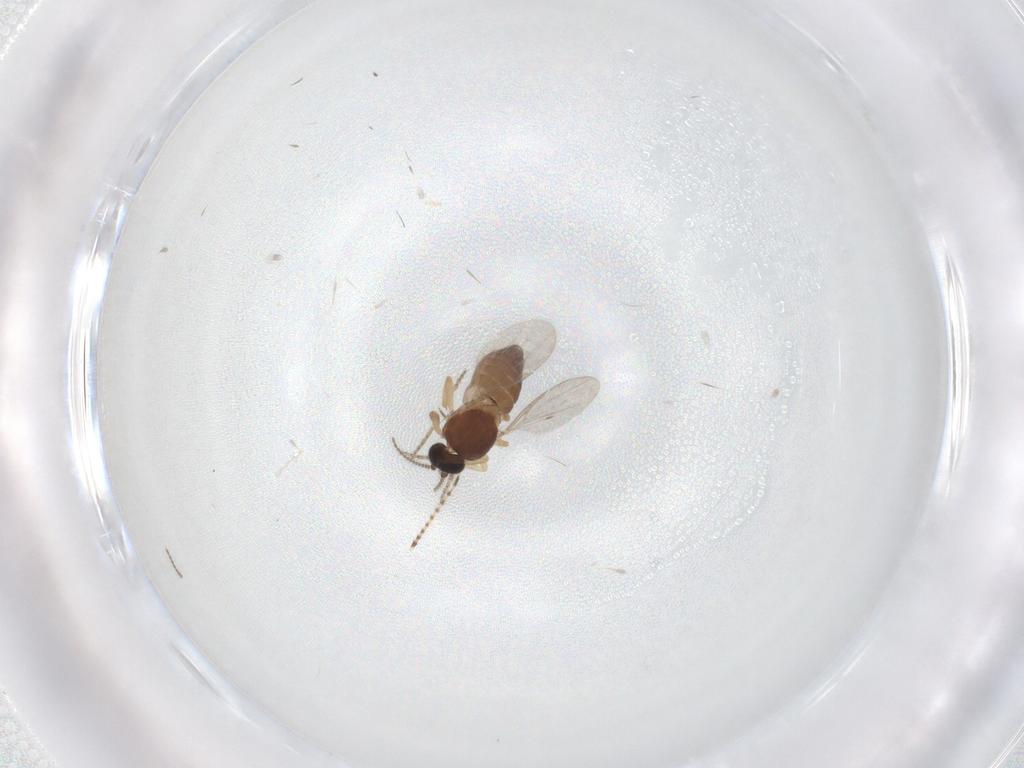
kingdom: Animalia
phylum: Arthropoda
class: Insecta
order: Diptera
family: Ceratopogonidae
